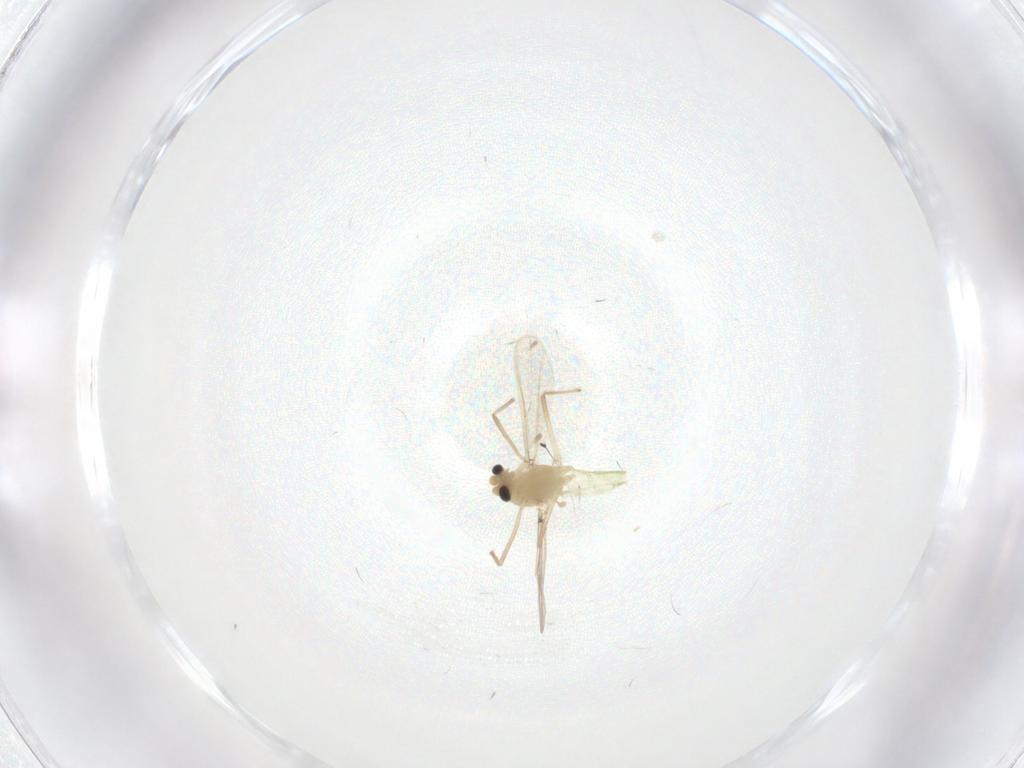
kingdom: Animalia
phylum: Arthropoda
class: Insecta
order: Diptera
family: Chironomidae
